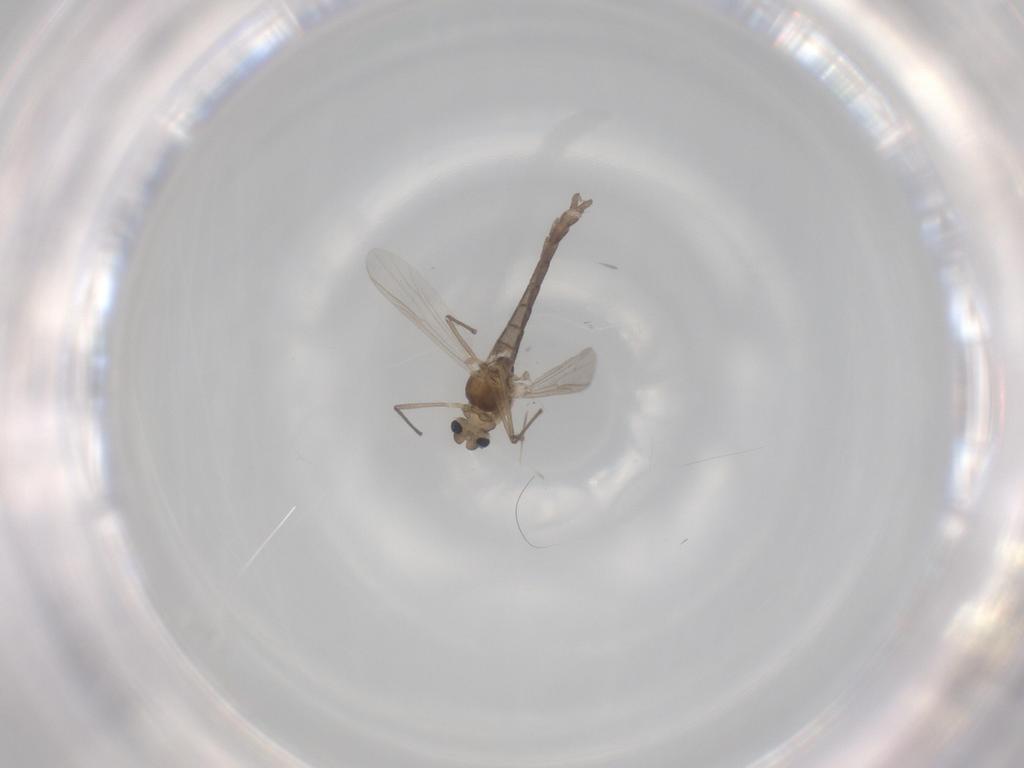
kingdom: Animalia
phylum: Arthropoda
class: Insecta
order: Diptera
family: Chironomidae
